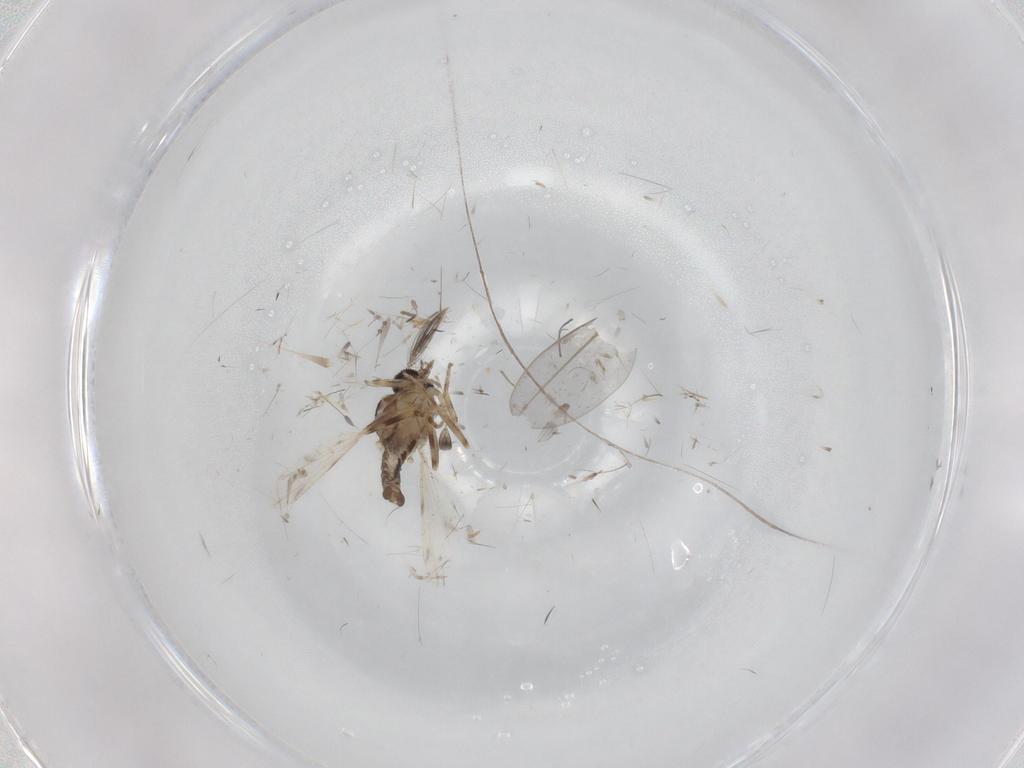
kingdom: Animalia
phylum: Arthropoda
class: Insecta
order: Diptera
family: Ceratopogonidae
